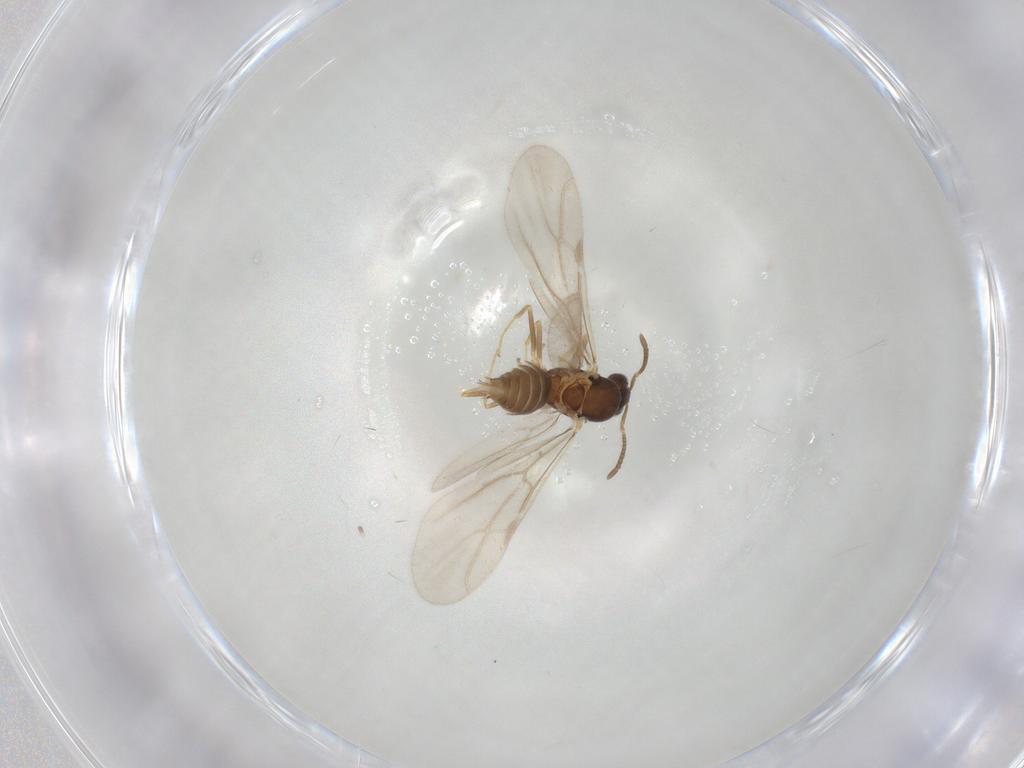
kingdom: Animalia
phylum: Arthropoda
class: Insecta
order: Hymenoptera
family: Formicidae
